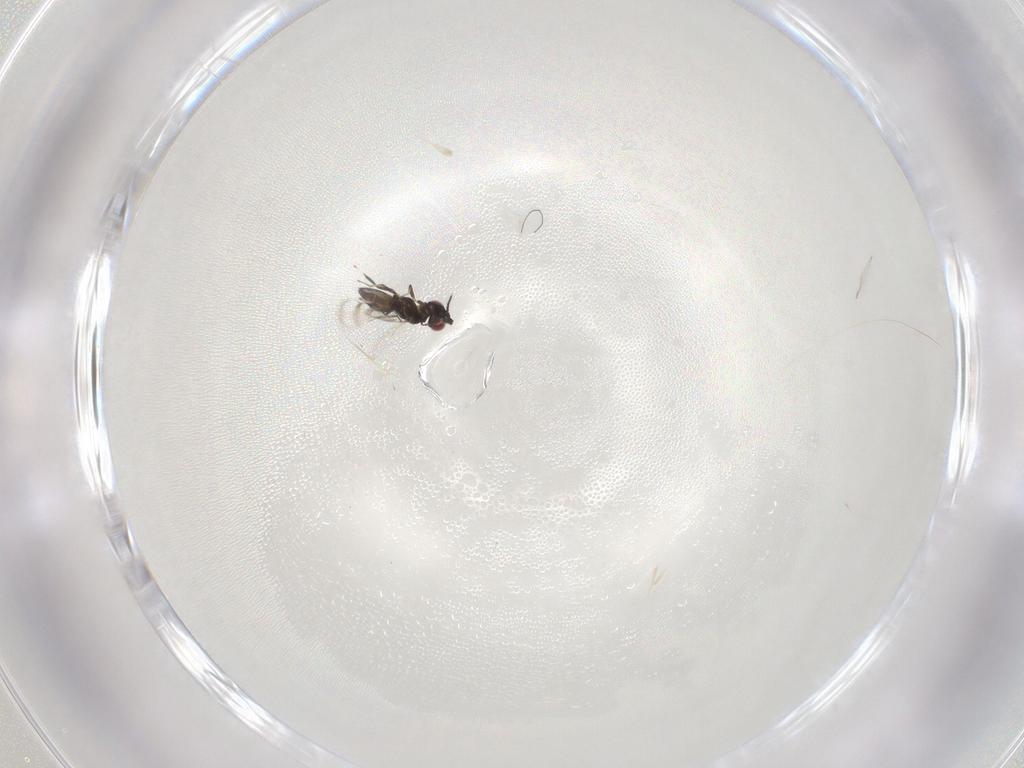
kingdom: Animalia
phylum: Arthropoda
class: Insecta
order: Hymenoptera
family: Eulophidae
